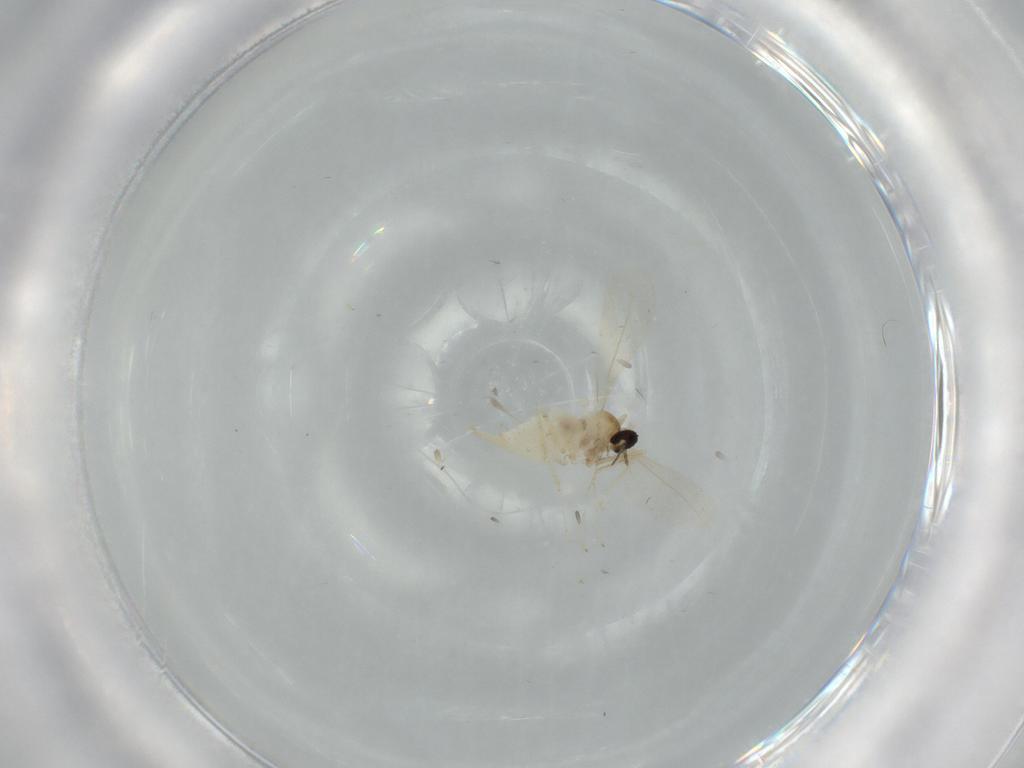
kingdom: Animalia
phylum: Arthropoda
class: Insecta
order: Diptera
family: Cecidomyiidae
